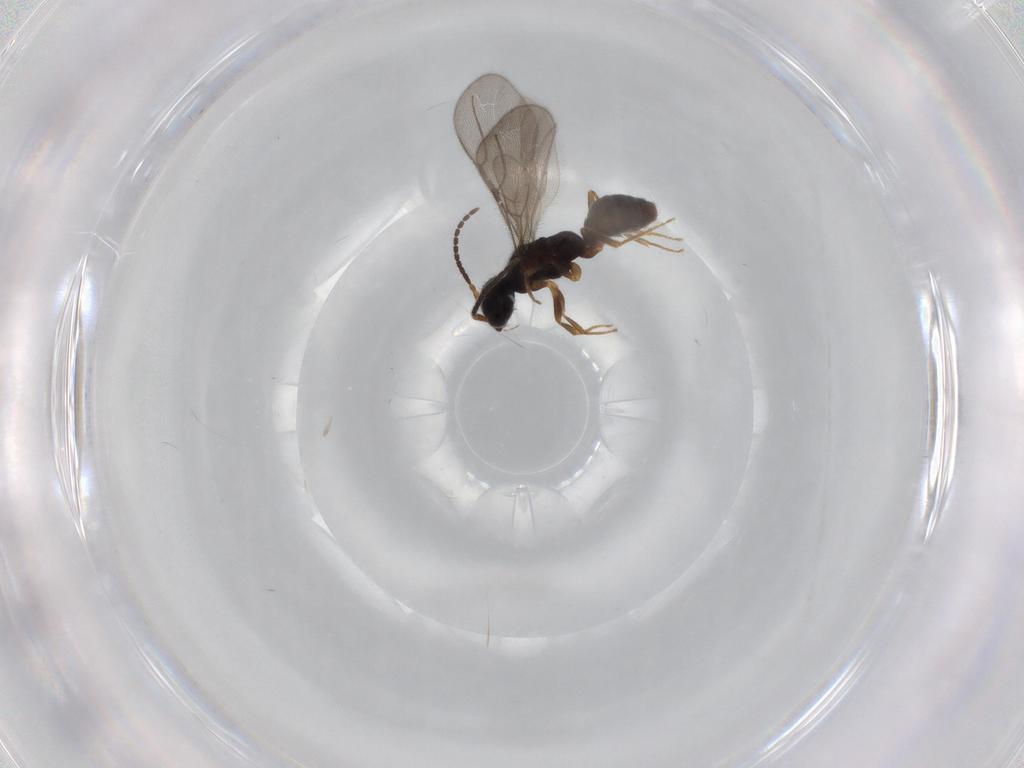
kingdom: Animalia
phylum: Arthropoda
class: Insecta
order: Hymenoptera
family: Bethylidae
